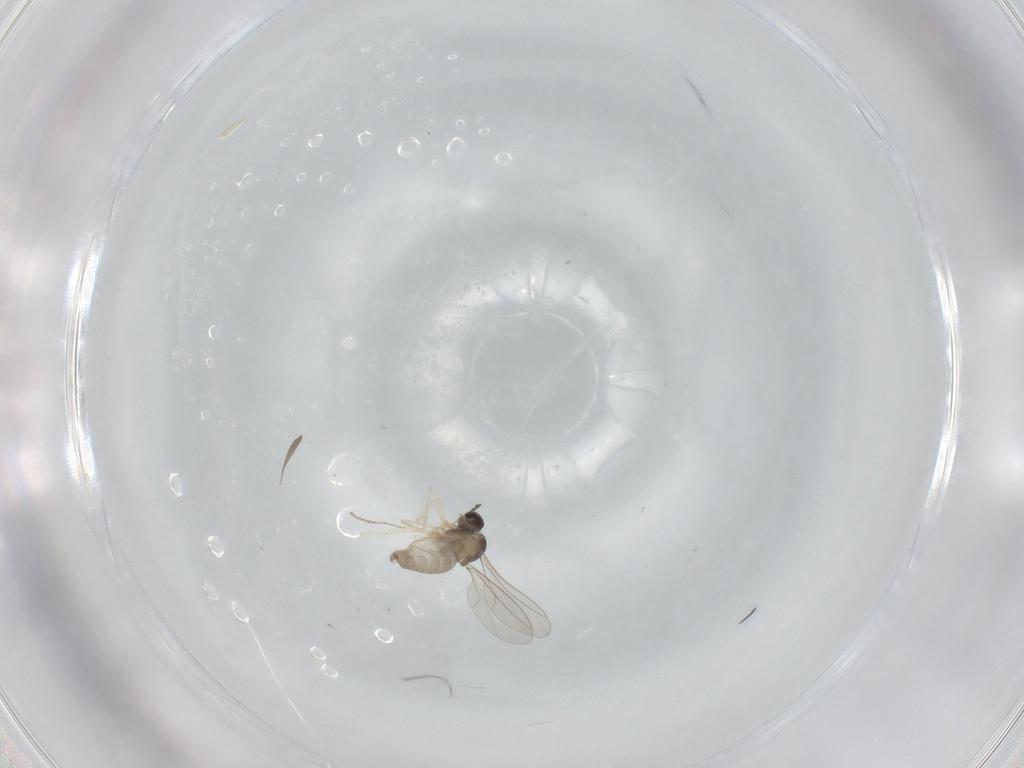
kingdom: Animalia
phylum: Arthropoda
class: Insecta
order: Diptera
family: Cecidomyiidae
